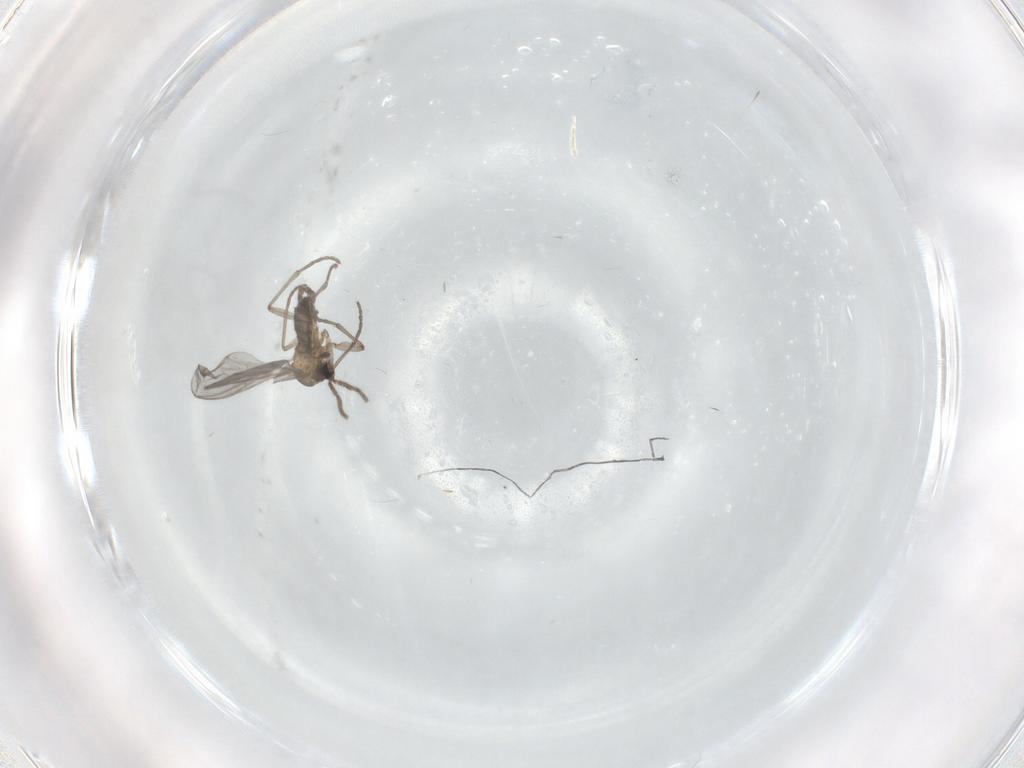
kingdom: Animalia
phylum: Arthropoda
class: Insecta
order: Diptera
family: Sciaridae
